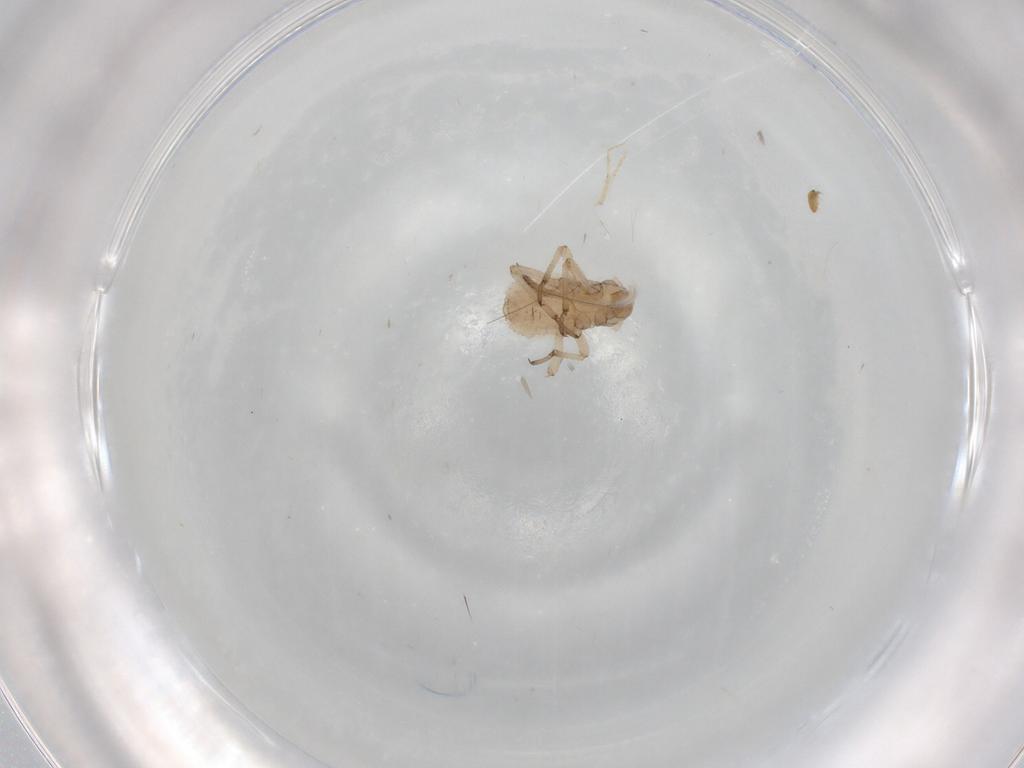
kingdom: Animalia
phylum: Arthropoda
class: Insecta
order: Hemiptera
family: Aphididae
